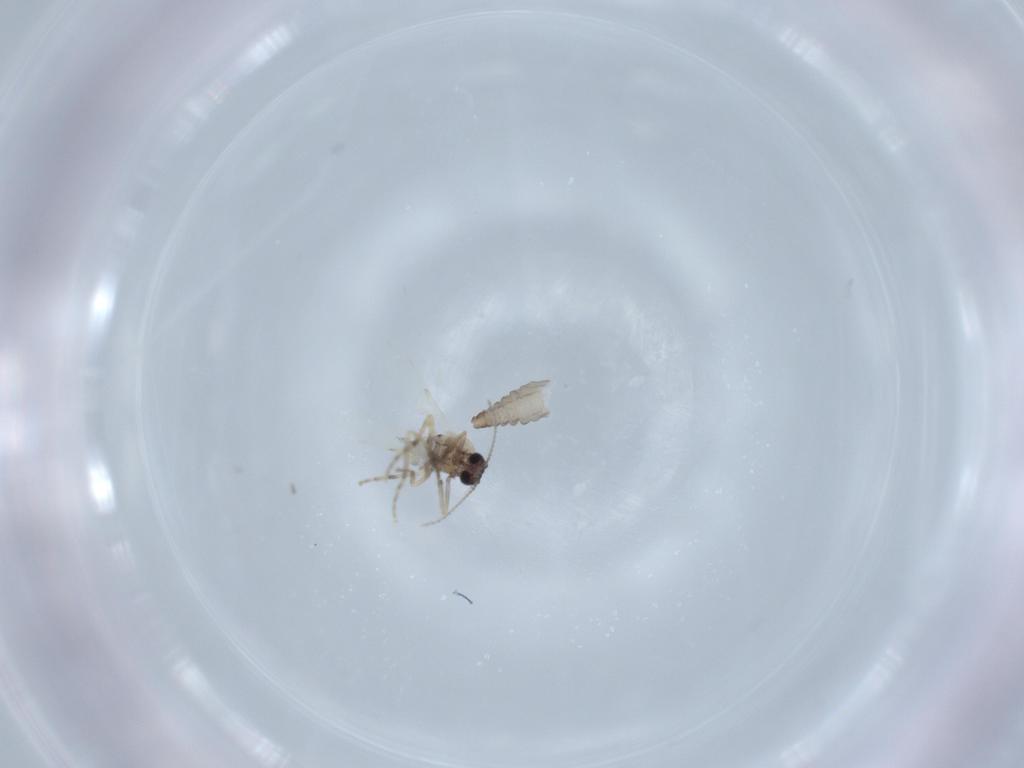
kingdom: Animalia
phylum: Arthropoda
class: Insecta
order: Diptera
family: Ceratopogonidae
